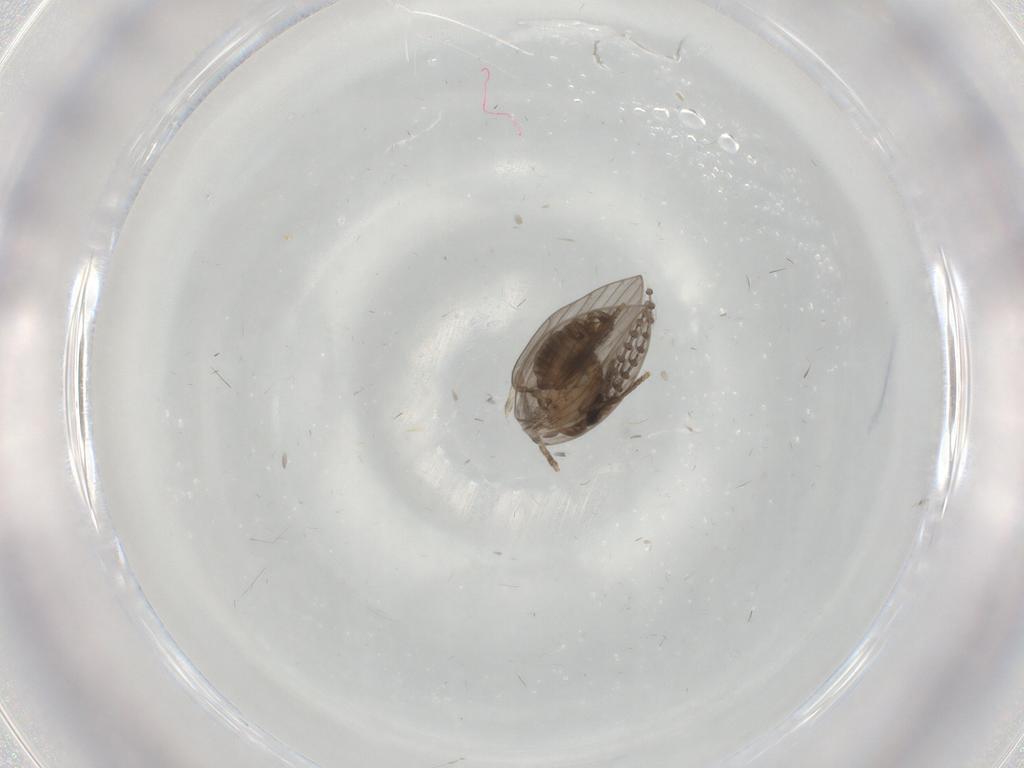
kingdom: Animalia
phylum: Arthropoda
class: Insecta
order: Diptera
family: Psychodidae
